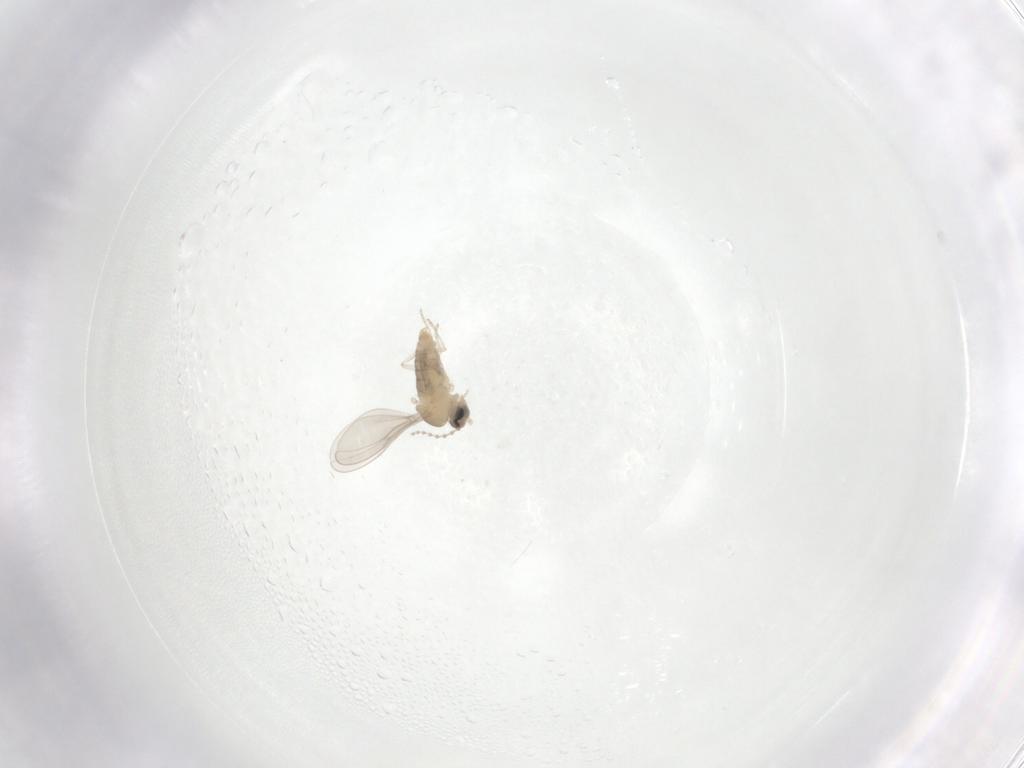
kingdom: Animalia
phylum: Arthropoda
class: Insecta
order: Diptera
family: Cecidomyiidae
